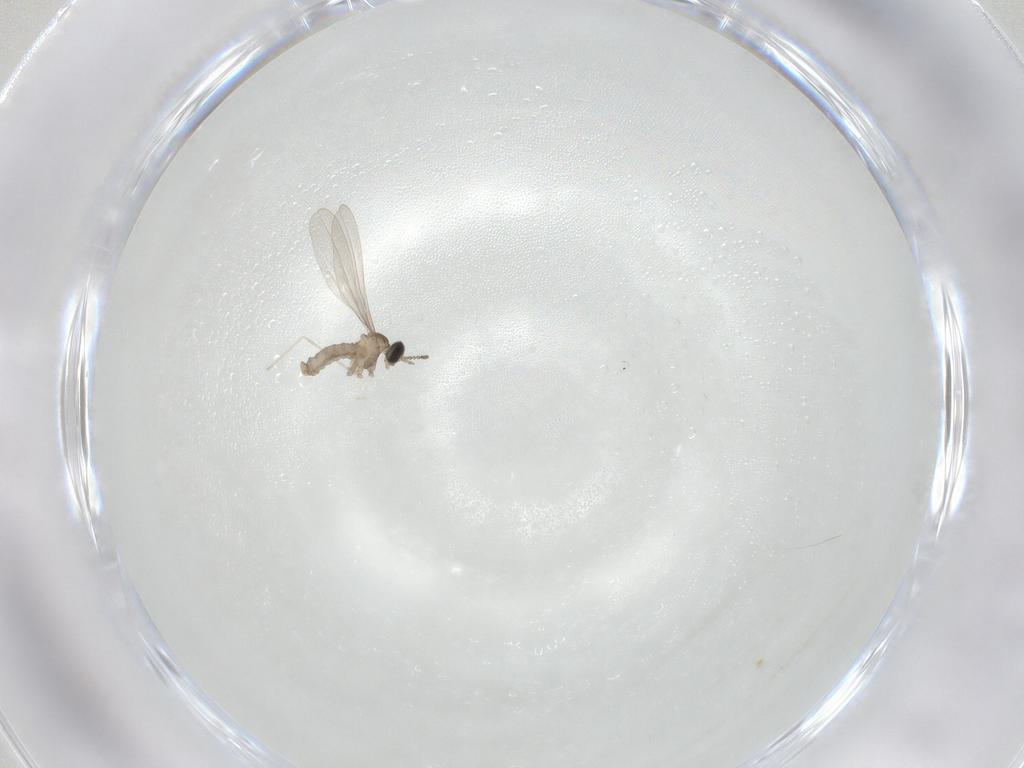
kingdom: Animalia
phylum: Arthropoda
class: Insecta
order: Diptera
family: Cecidomyiidae
